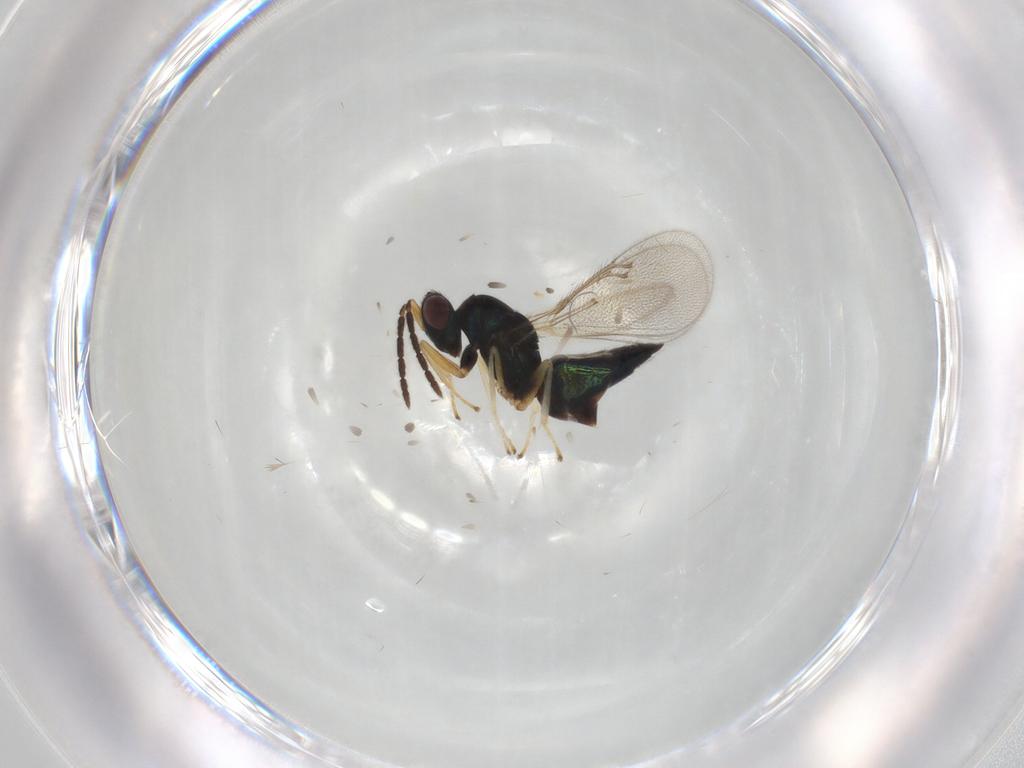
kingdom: Animalia
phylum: Arthropoda
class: Insecta
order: Hymenoptera
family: Eulophidae
